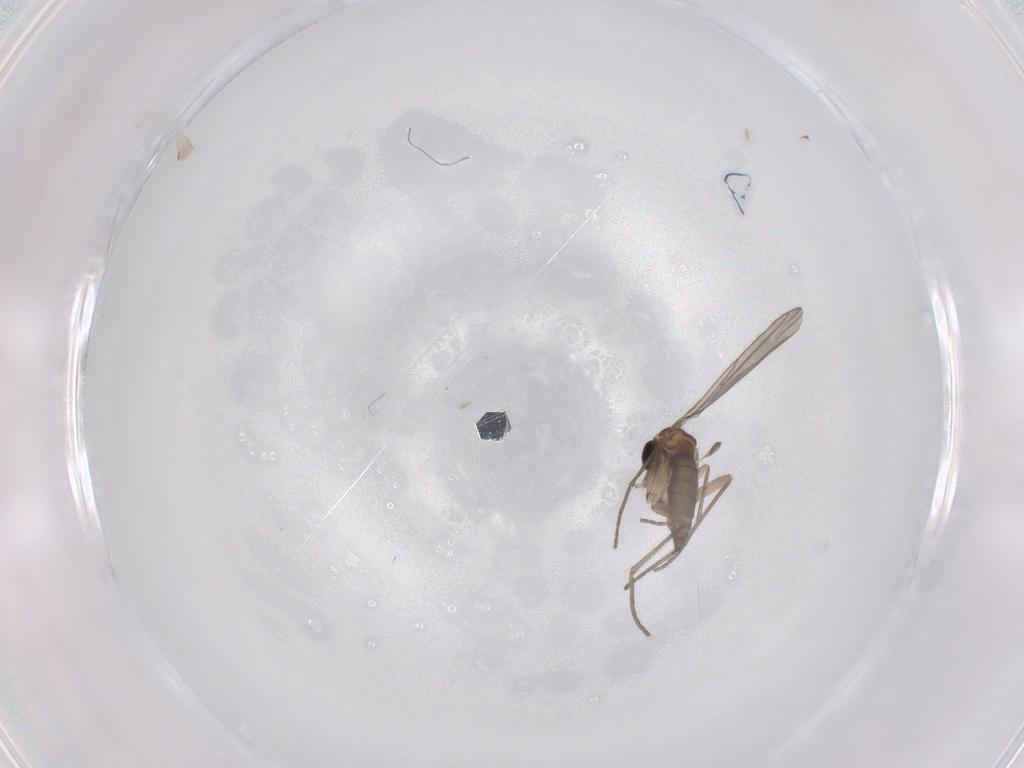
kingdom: Animalia
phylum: Arthropoda
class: Insecta
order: Diptera
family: Sciaridae
